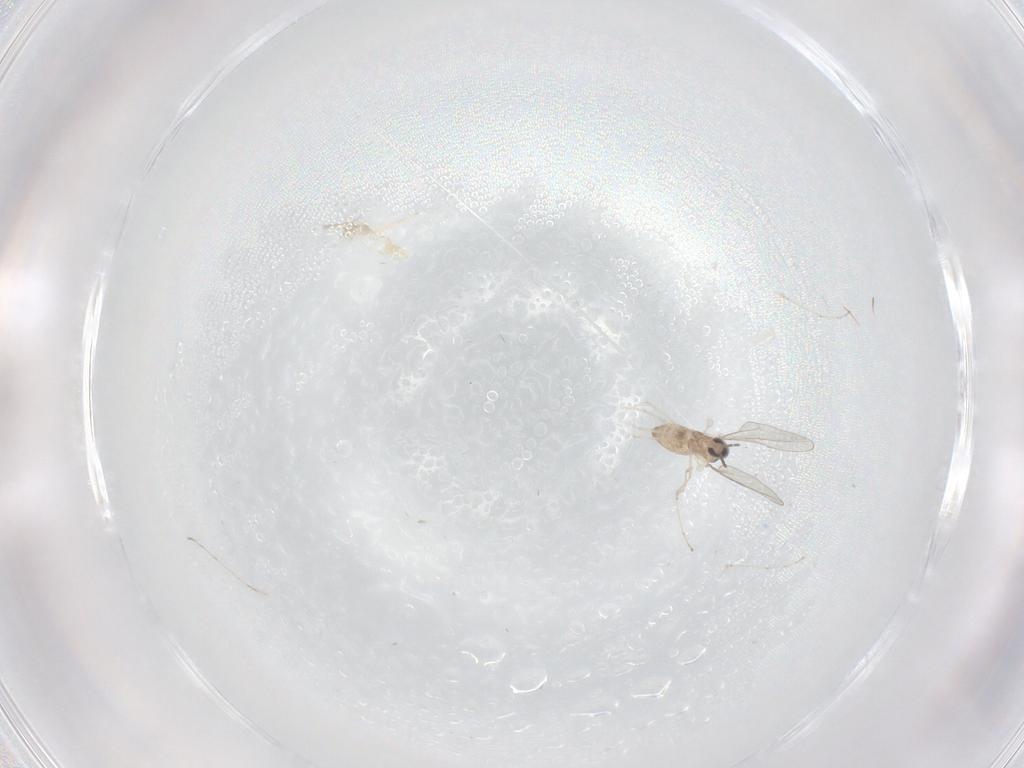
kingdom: Animalia
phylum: Arthropoda
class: Insecta
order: Diptera
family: Cecidomyiidae
